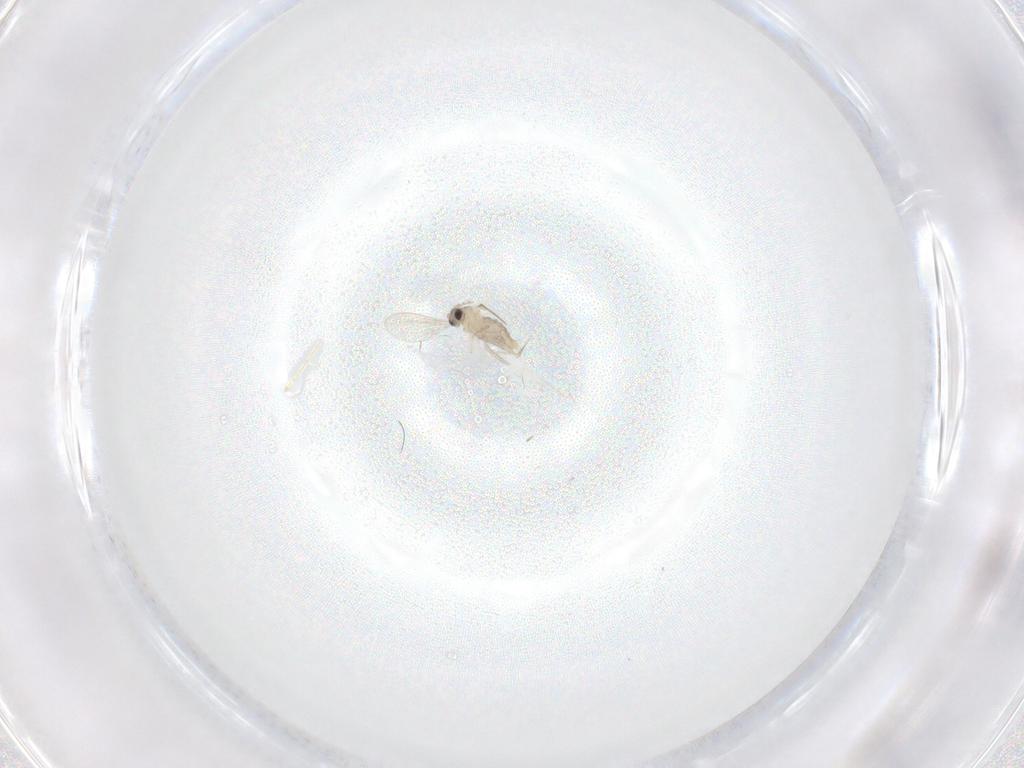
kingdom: Animalia
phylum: Arthropoda
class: Insecta
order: Diptera
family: Cecidomyiidae
